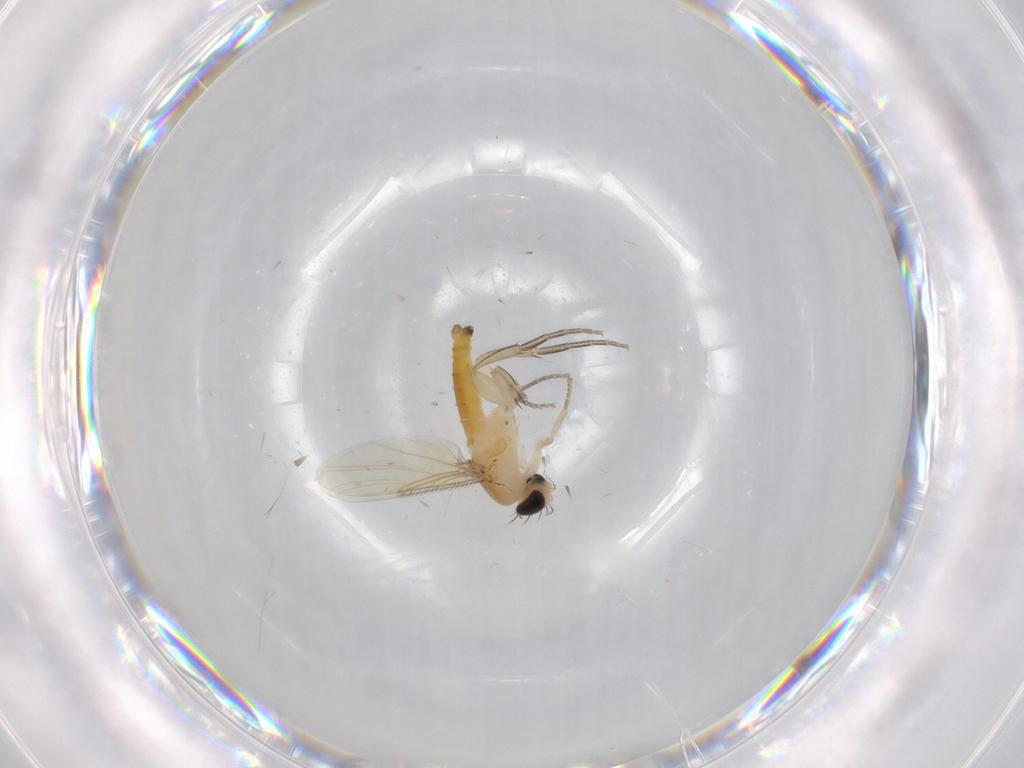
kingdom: Animalia
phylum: Arthropoda
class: Insecta
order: Diptera
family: Phoridae
